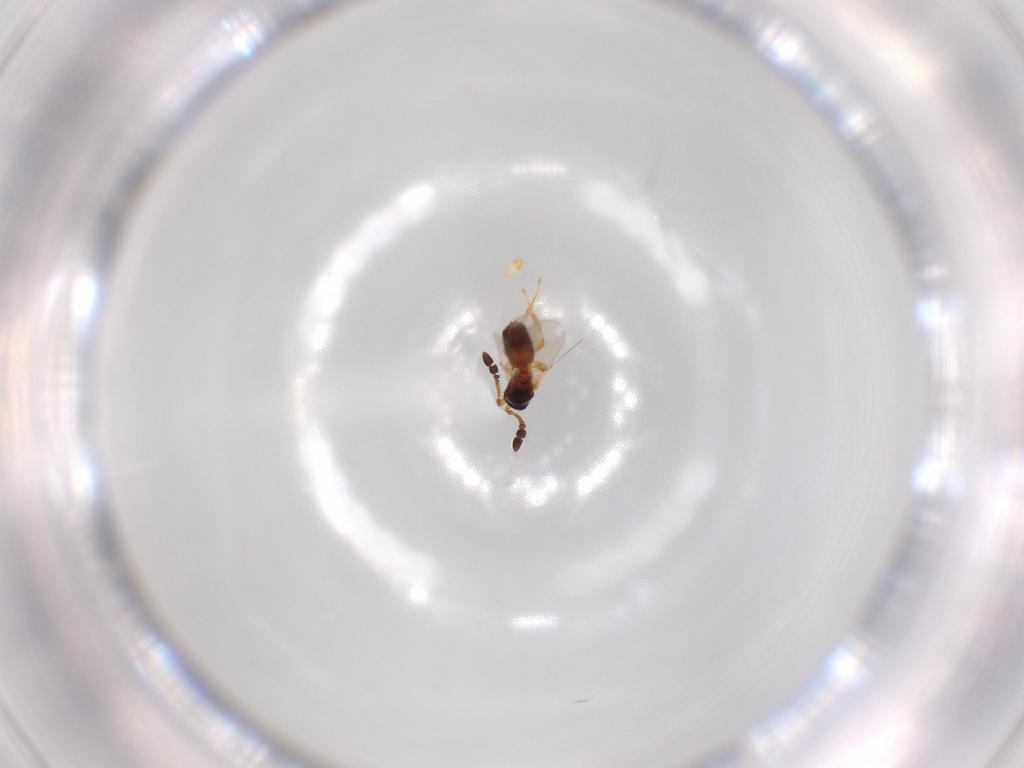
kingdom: Animalia
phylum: Arthropoda
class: Insecta
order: Hymenoptera
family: Diapriidae
